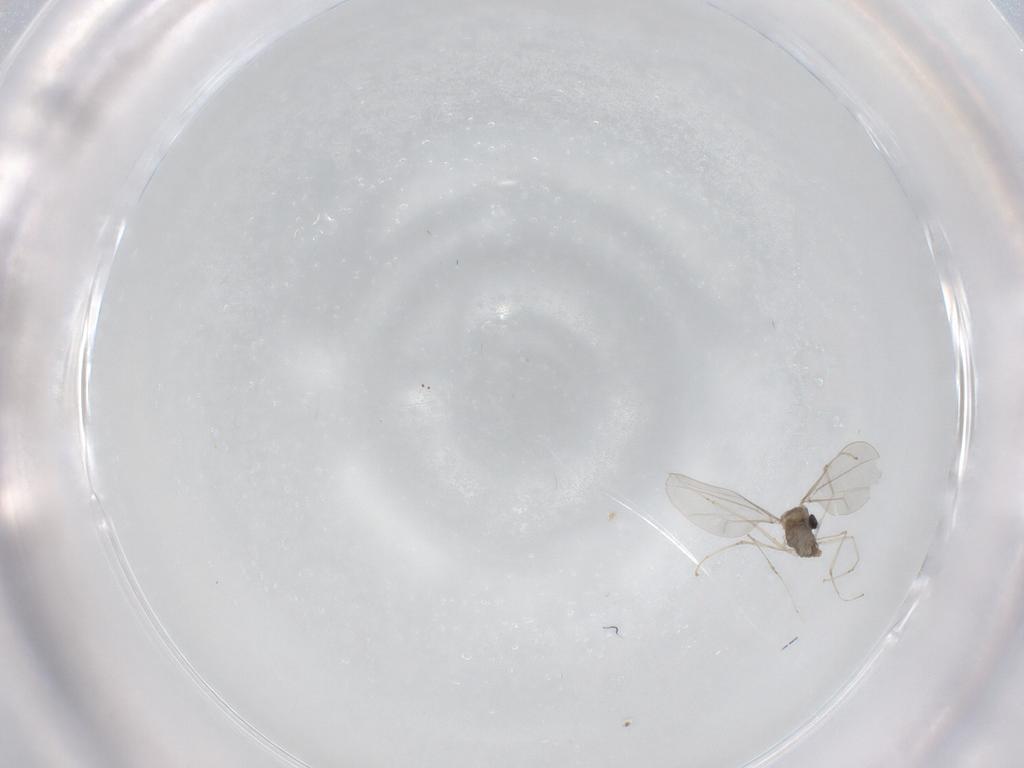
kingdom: Animalia
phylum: Arthropoda
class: Insecta
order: Diptera
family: Cecidomyiidae
